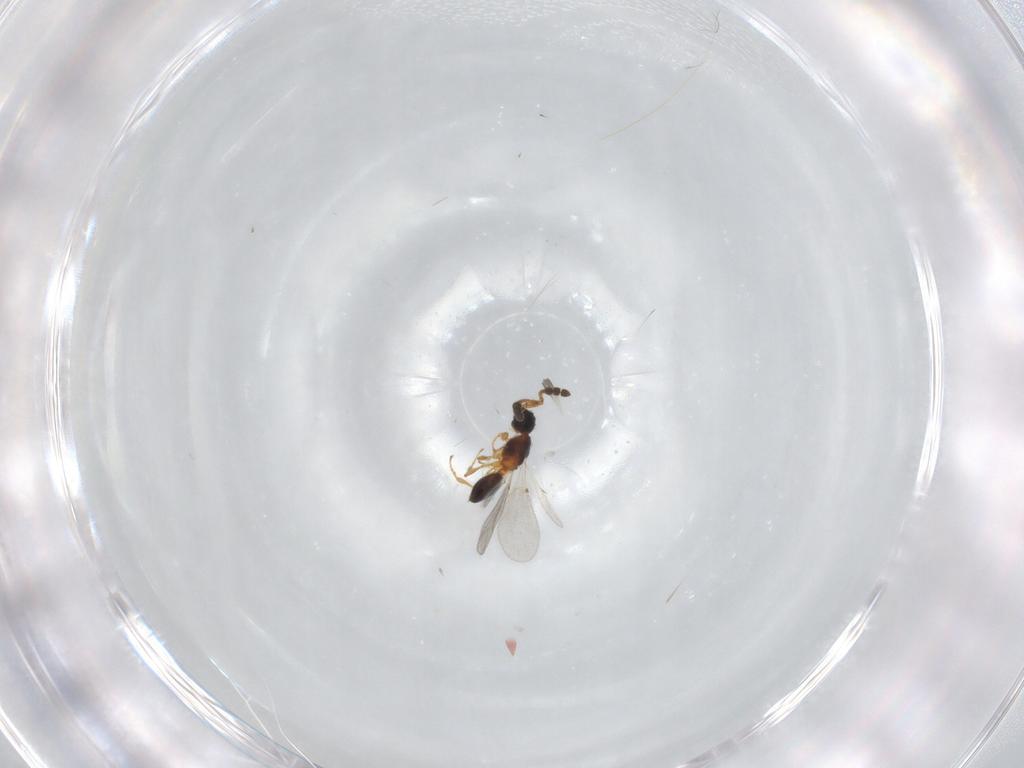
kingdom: Animalia
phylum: Arthropoda
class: Insecta
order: Hymenoptera
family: Diapriidae
